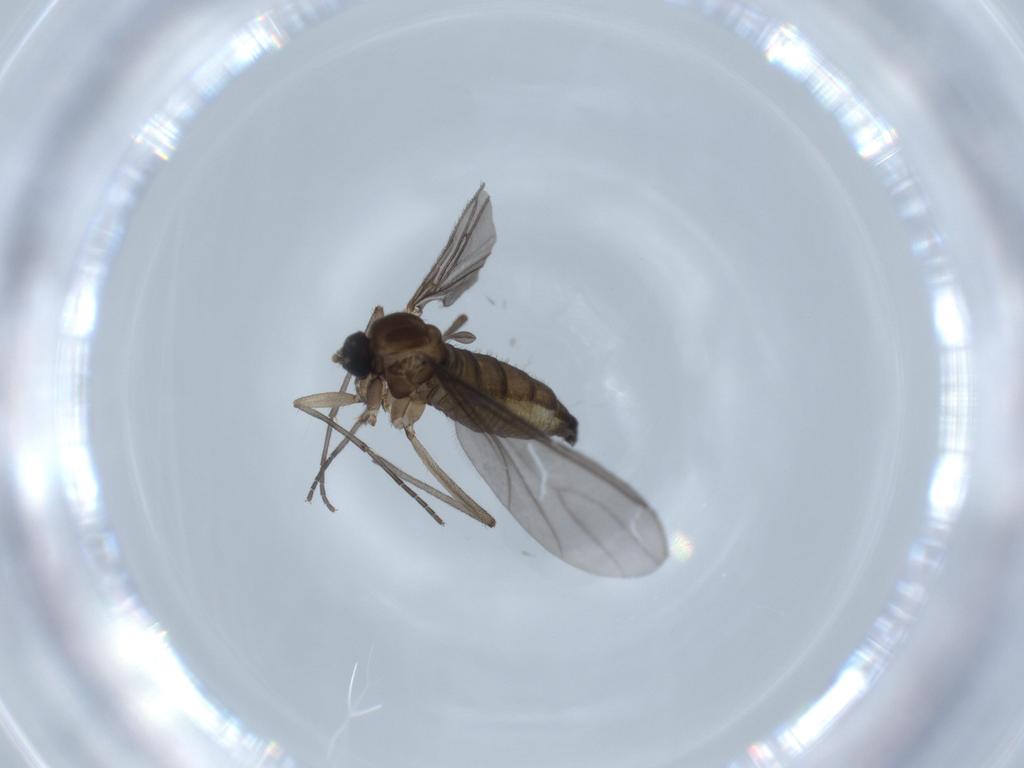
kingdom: Animalia
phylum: Arthropoda
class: Insecta
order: Diptera
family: Sciaridae
